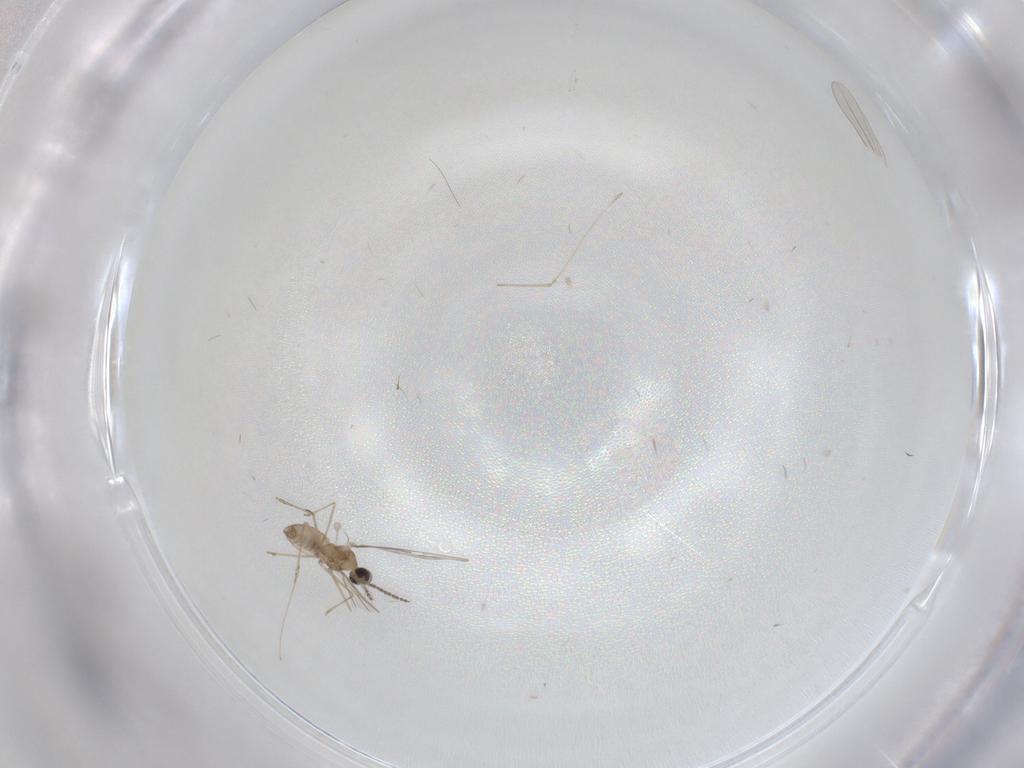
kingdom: Animalia
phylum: Arthropoda
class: Insecta
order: Diptera
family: Cecidomyiidae
